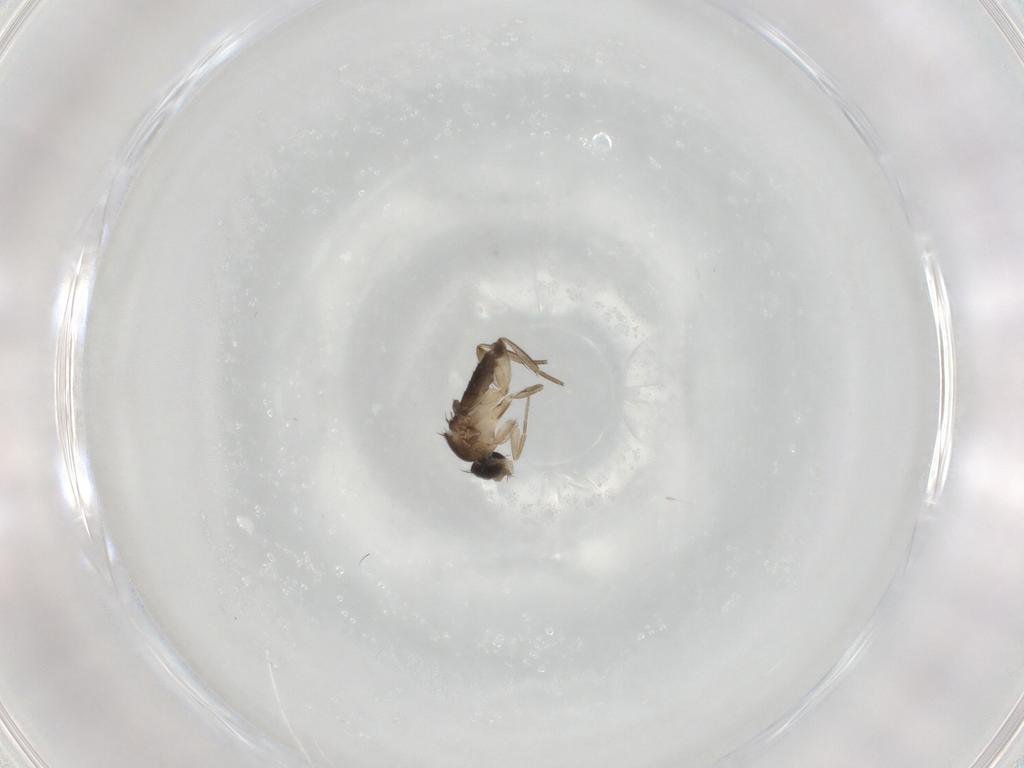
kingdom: Animalia
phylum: Arthropoda
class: Insecta
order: Diptera
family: Phoridae
